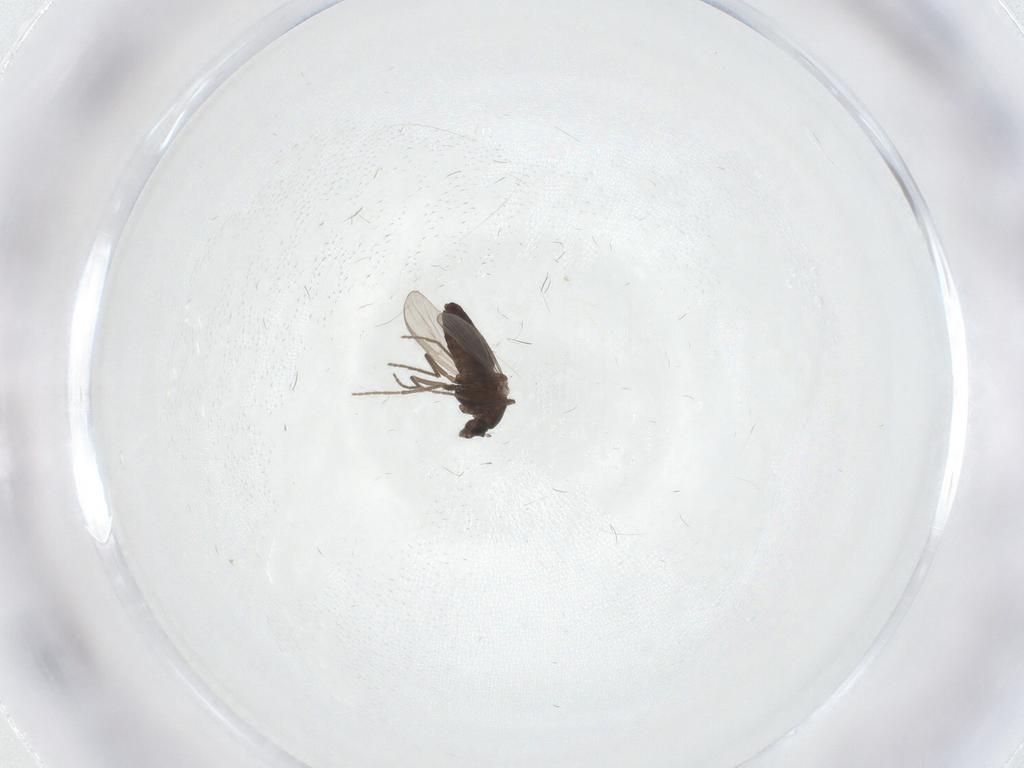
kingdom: Animalia
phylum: Arthropoda
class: Insecta
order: Diptera
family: Chironomidae
